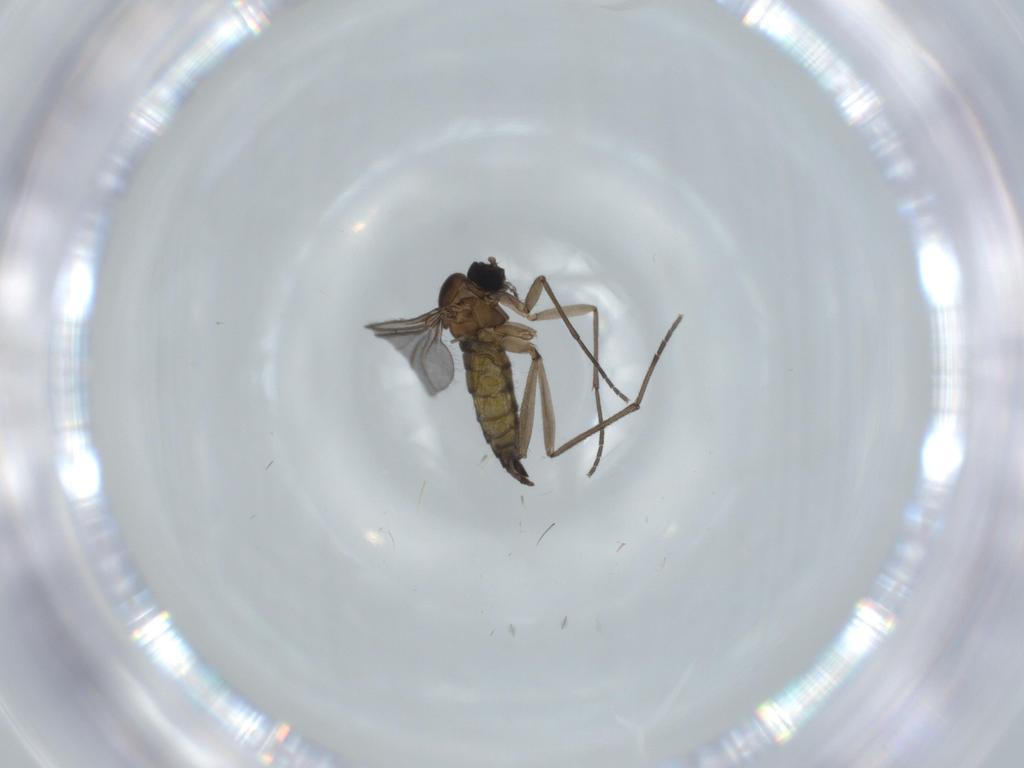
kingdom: Animalia
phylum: Arthropoda
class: Insecta
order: Diptera
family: Sciaridae
